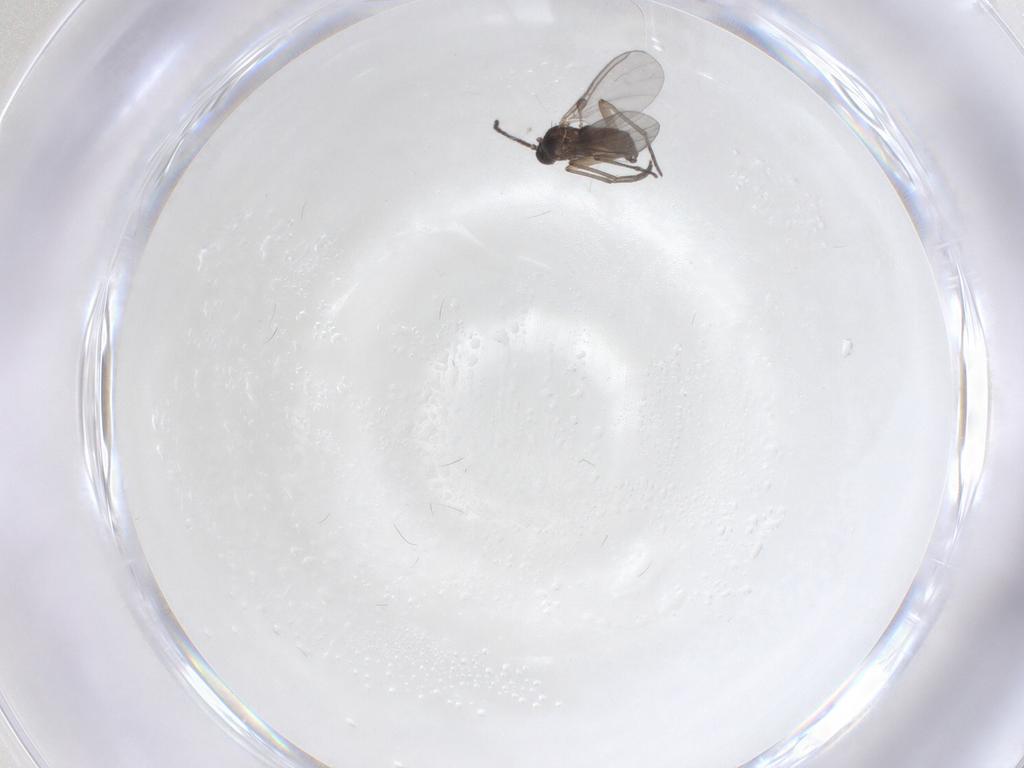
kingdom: Animalia
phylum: Arthropoda
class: Insecta
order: Diptera
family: Sciaridae
